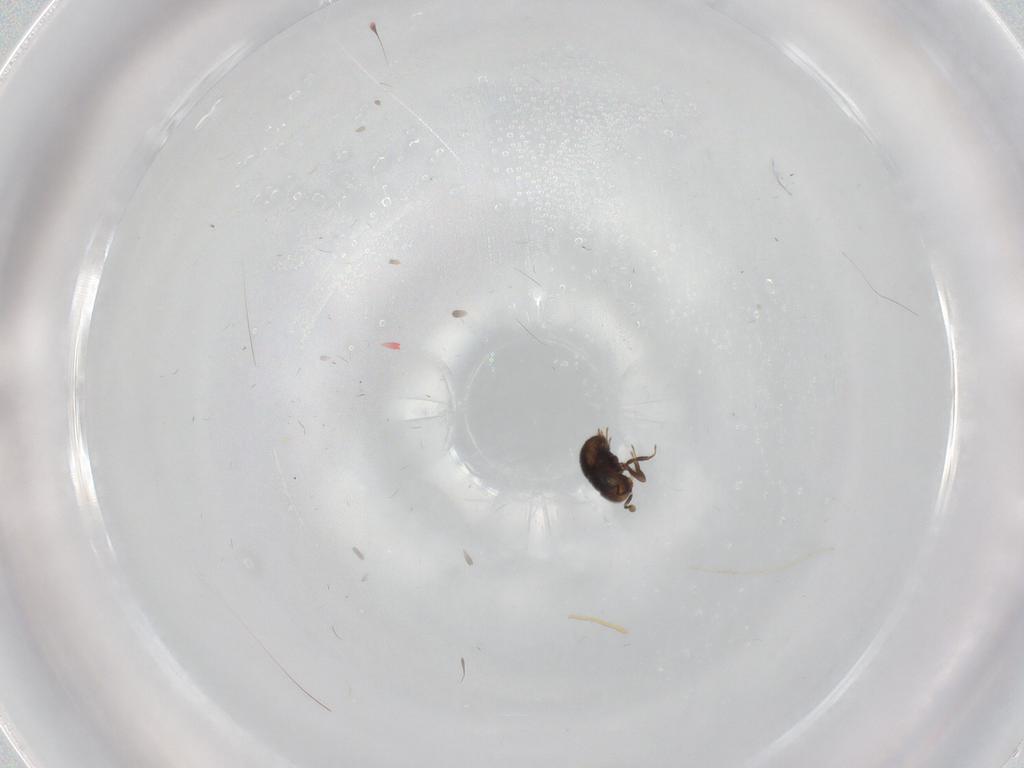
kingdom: Animalia
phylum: Arthropoda
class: Insecta
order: Hymenoptera
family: Scelionidae
